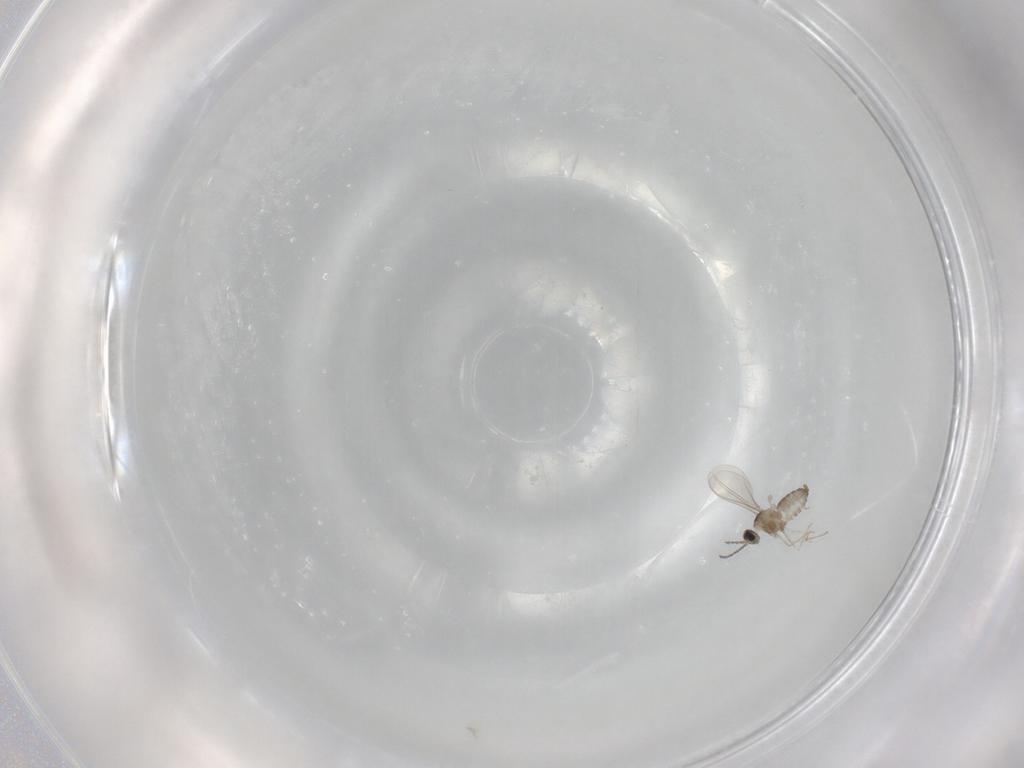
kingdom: Animalia
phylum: Arthropoda
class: Insecta
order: Diptera
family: Cecidomyiidae
